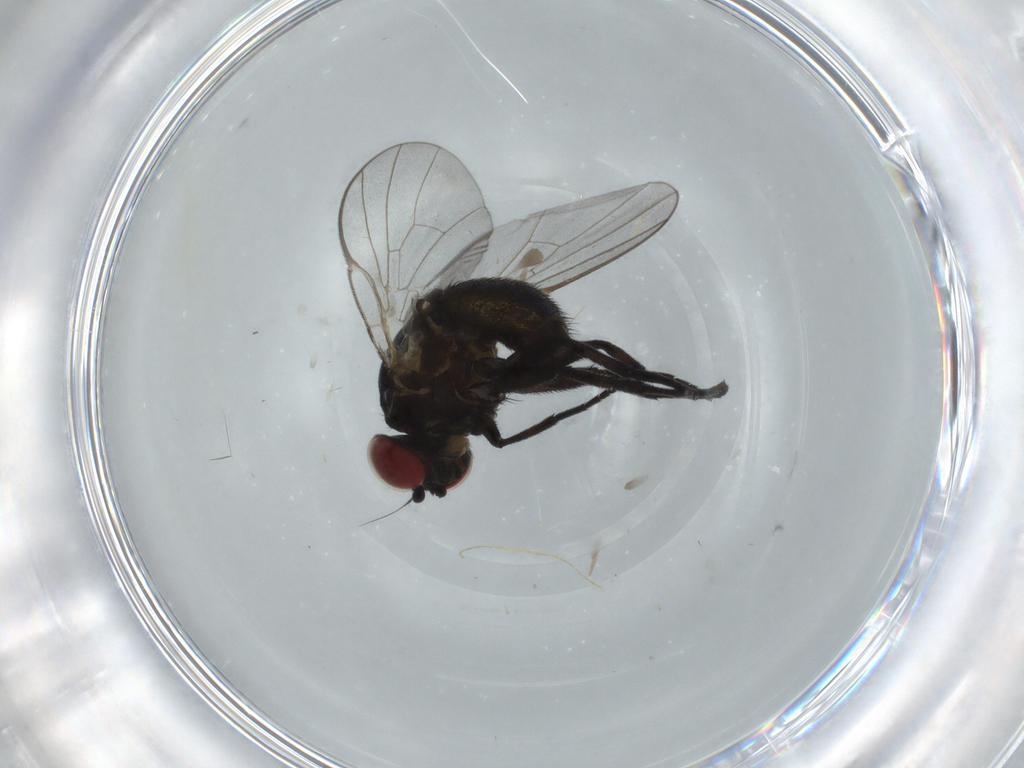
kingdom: Animalia
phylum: Arthropoda
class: Insecta
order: Diptera
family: Agromyzidae
